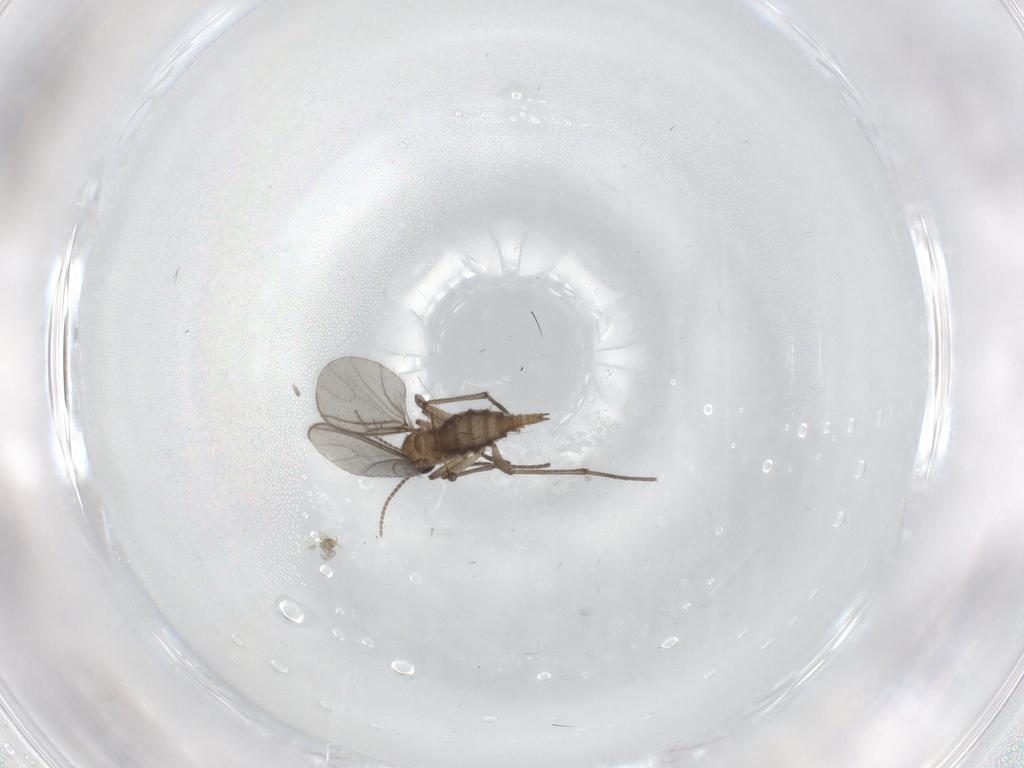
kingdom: Animalia
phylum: Arthropoda
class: Insecta
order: Diptera
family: Sciaridae
